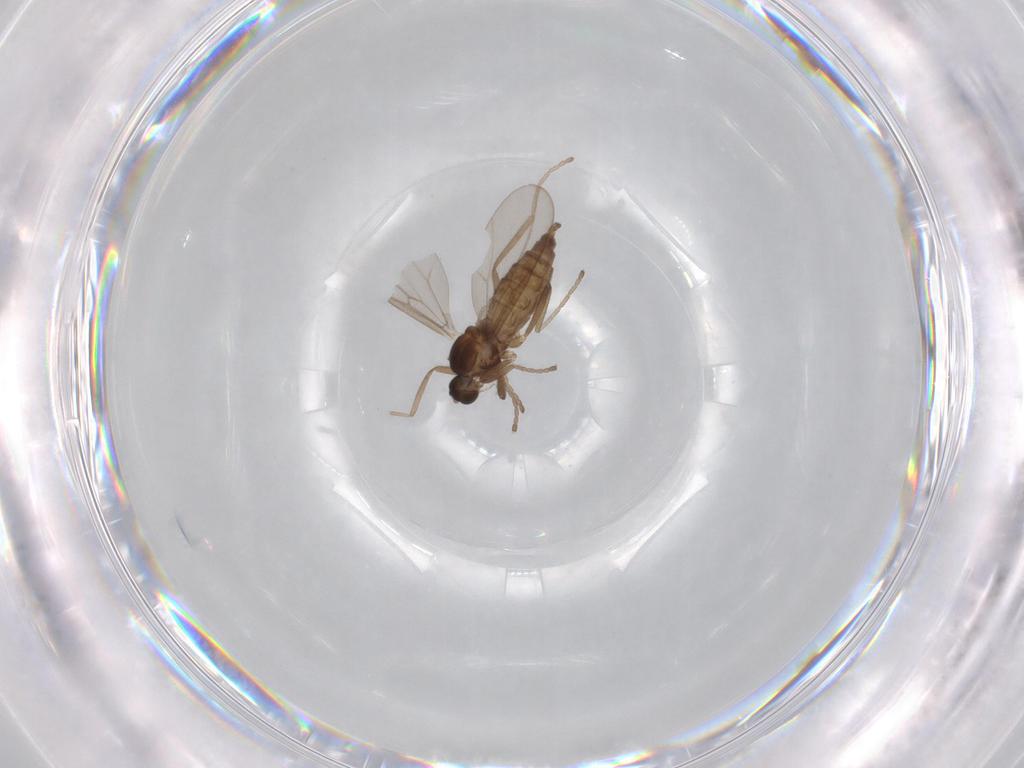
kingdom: Animalia
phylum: Arthropoda
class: Insecta
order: Diptera
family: Cecidomyiidae
